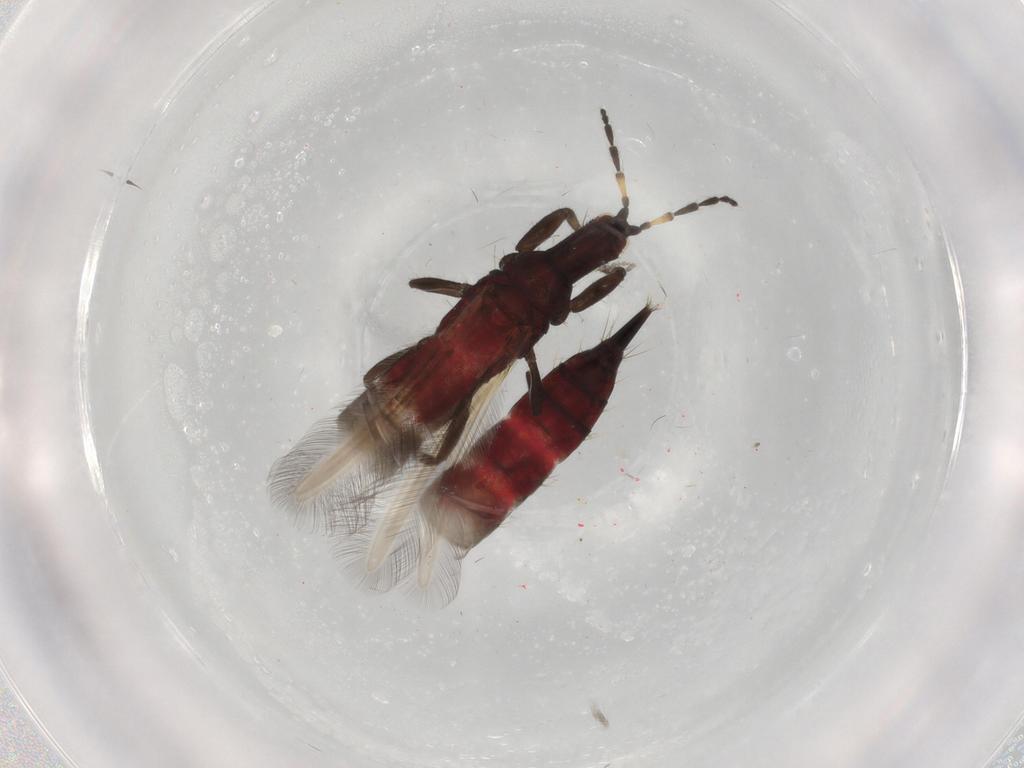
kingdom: Animalia
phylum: Arthropoda
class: Insecta
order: Thysanoptera
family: Phlaeothripidae
